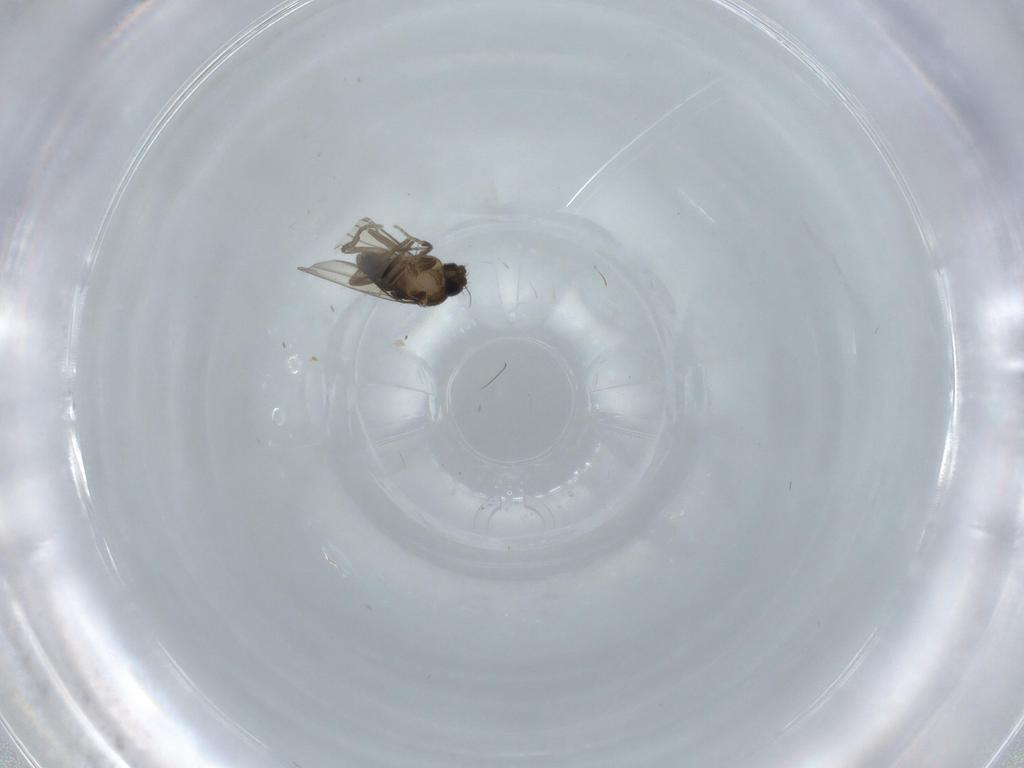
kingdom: Animalia
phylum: Arthropoda
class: Insecta
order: Diptera
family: Phoridae
